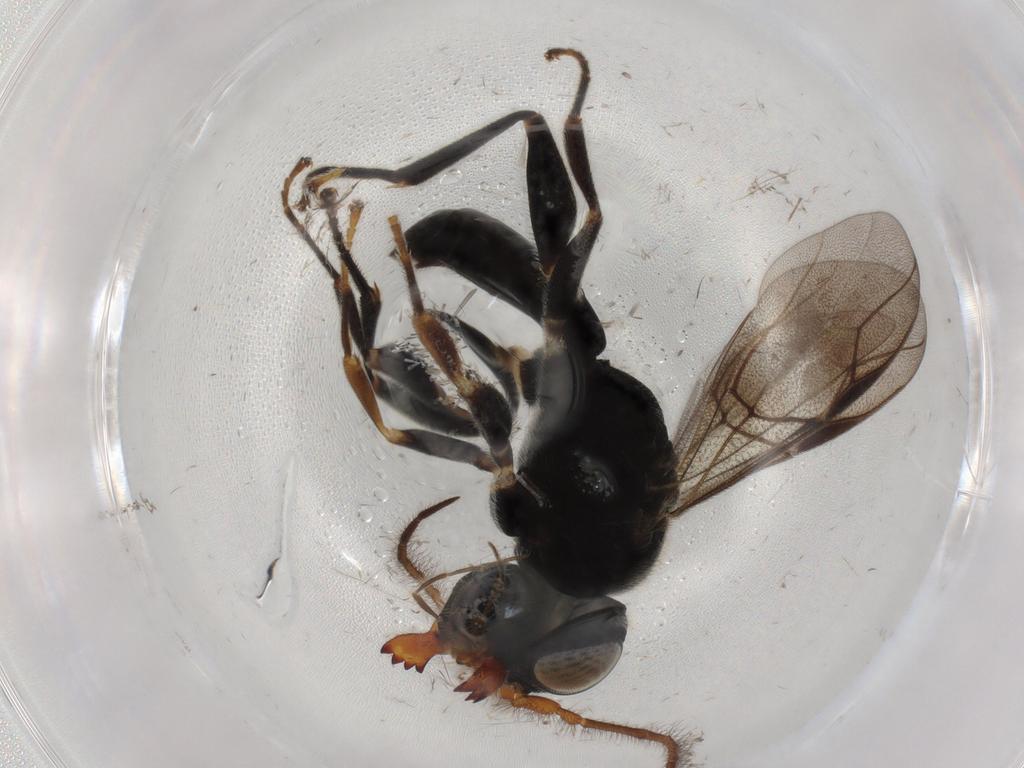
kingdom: Animalia
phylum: Arthropoda
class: Insecta
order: Hymenoptera
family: Dryinidae
